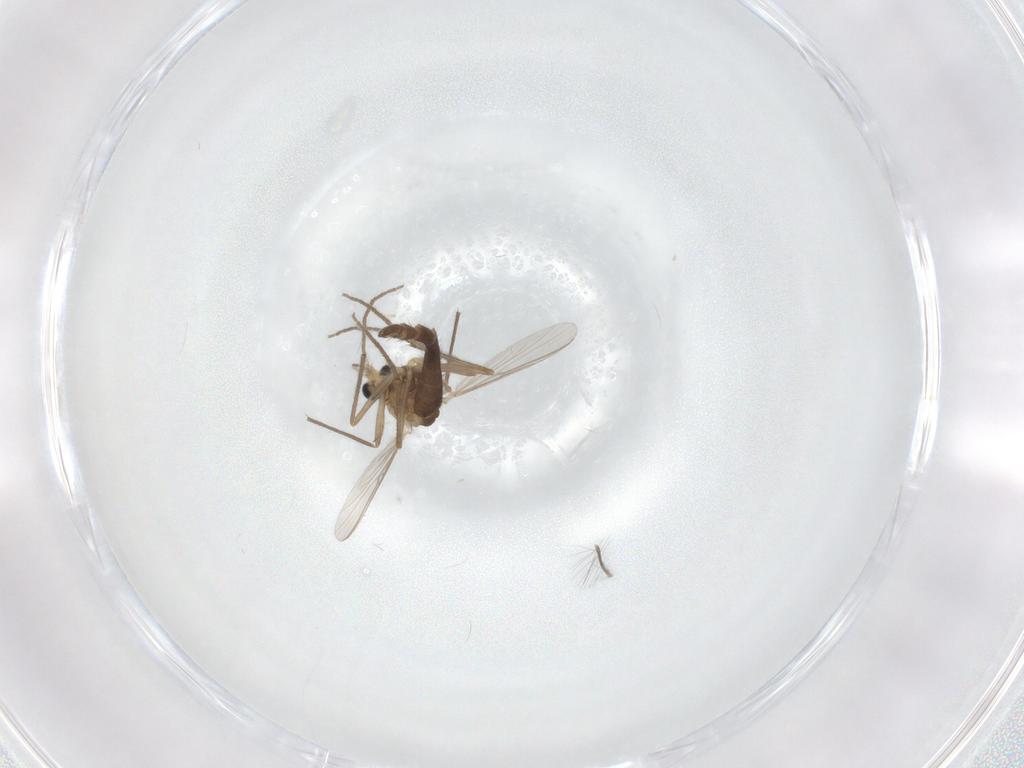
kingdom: Animalia
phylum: Arthropoda
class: Insecta
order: Diptera
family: Chironomidae
